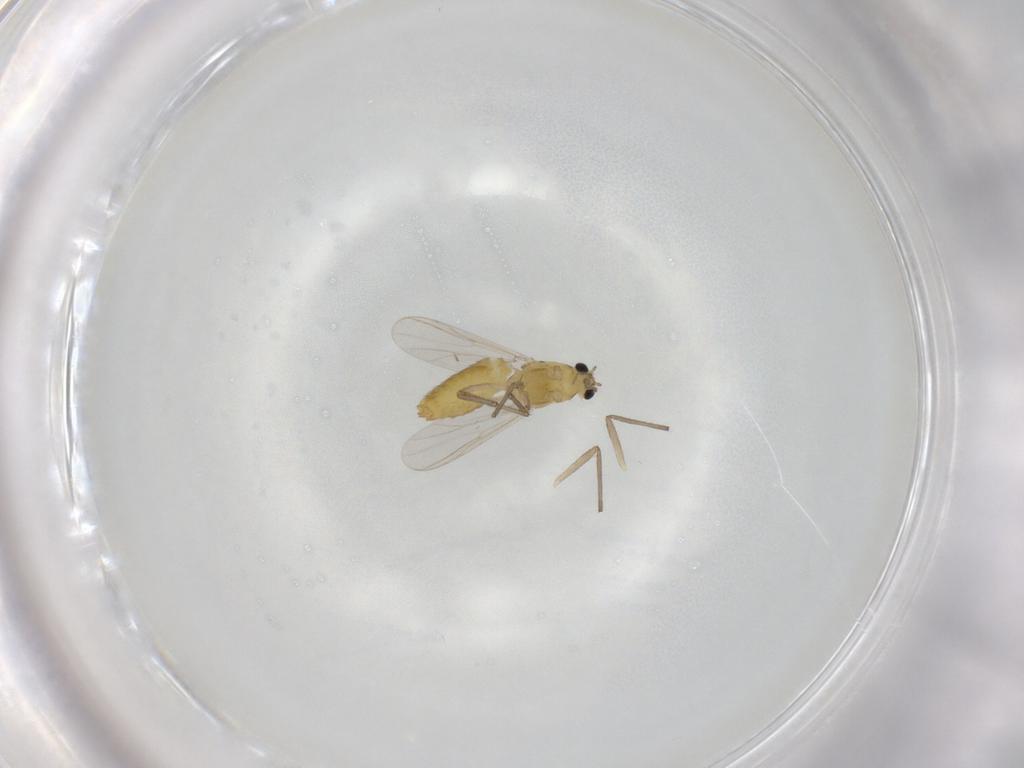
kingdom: Animalia
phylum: Arthropoda
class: Insecta
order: Diptera
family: Chironomidae
